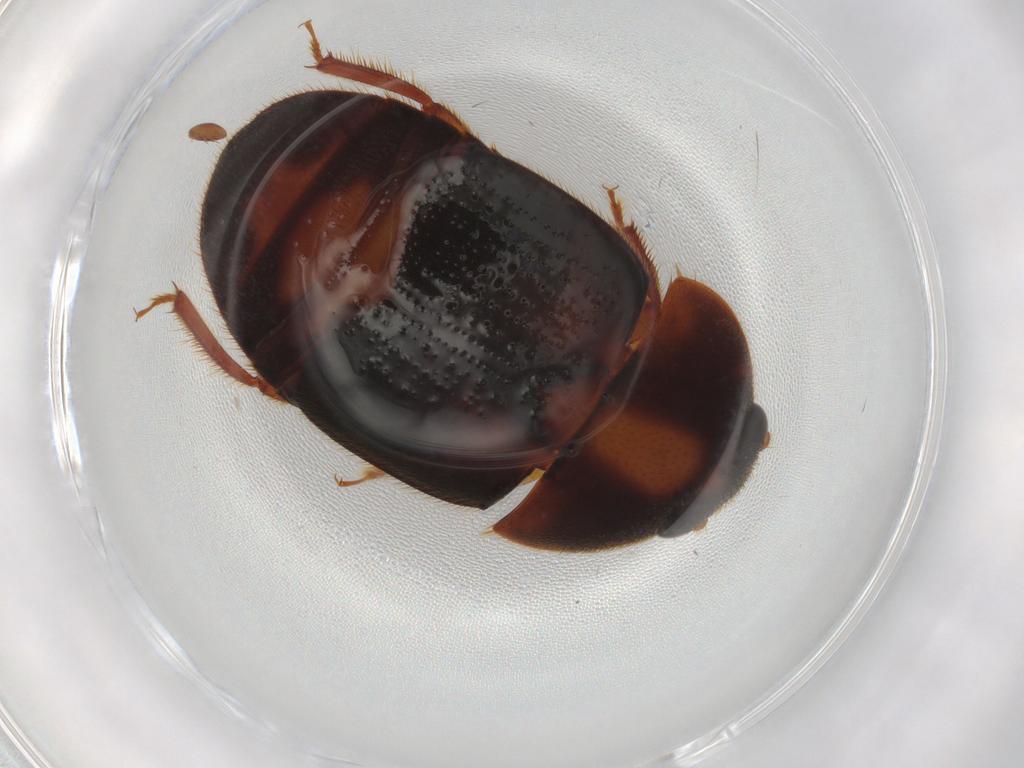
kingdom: Animalia
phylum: Arthropoda
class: Insecta
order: Coleoptera
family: Nitidulidae
